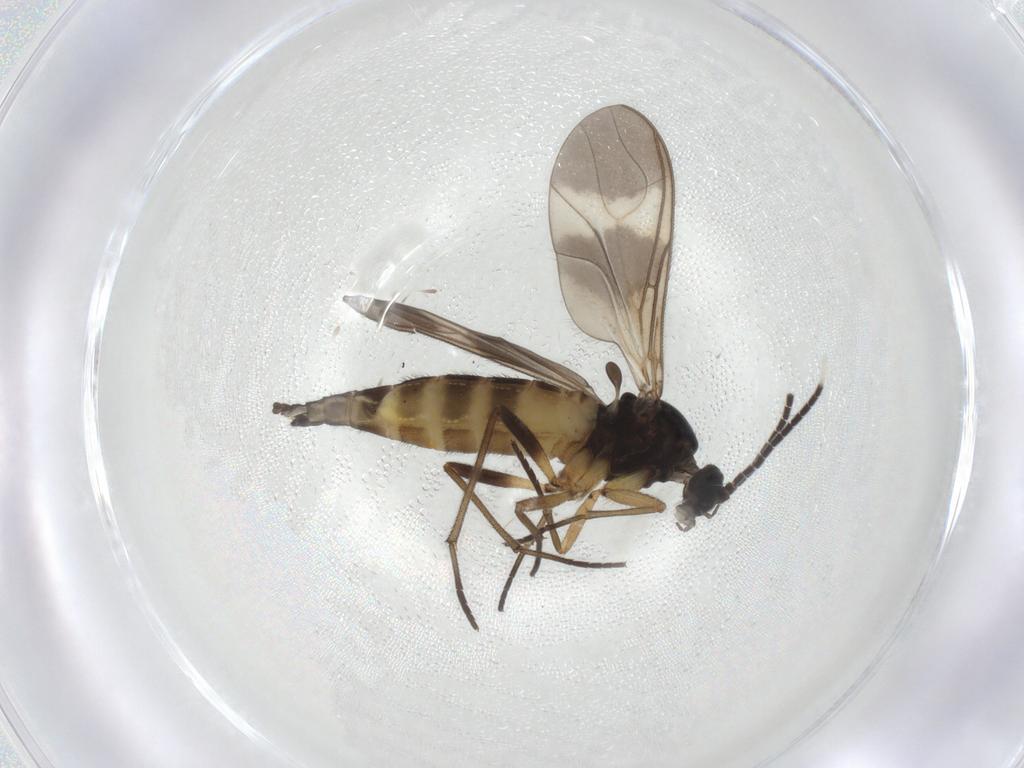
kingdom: Animalia
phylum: Arthropoda
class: Insecta
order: Diptera
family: Sciaridae
